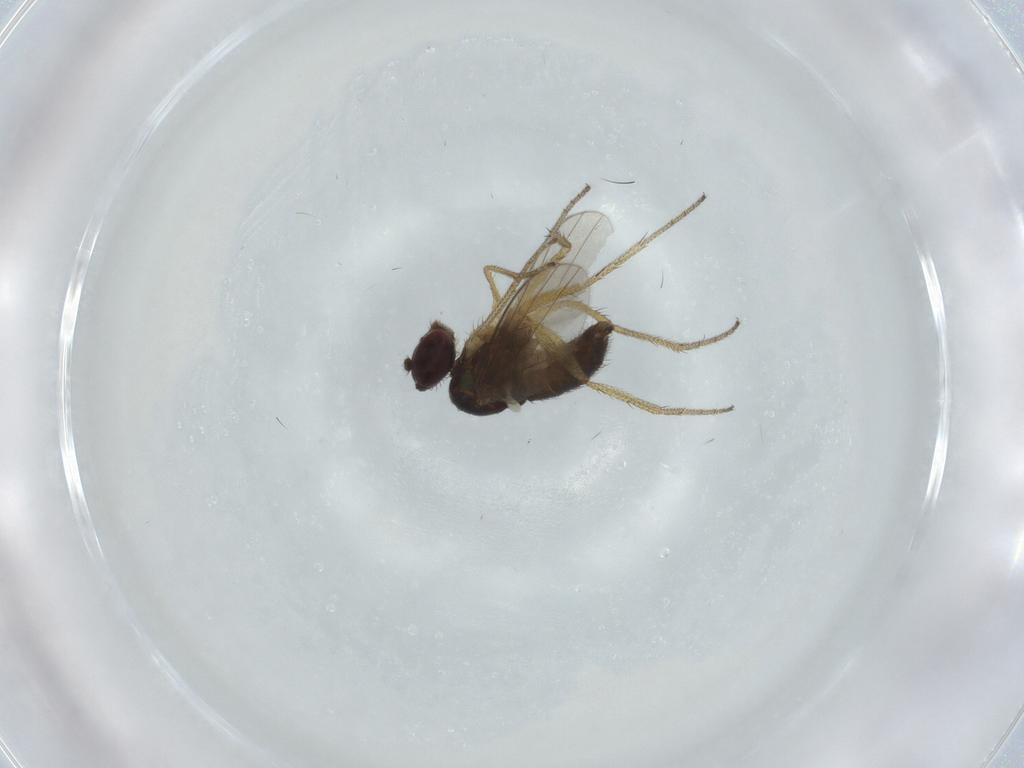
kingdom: Animalia
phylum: Arthropoda
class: Insecta
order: Diptera
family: Dolichopodidae
